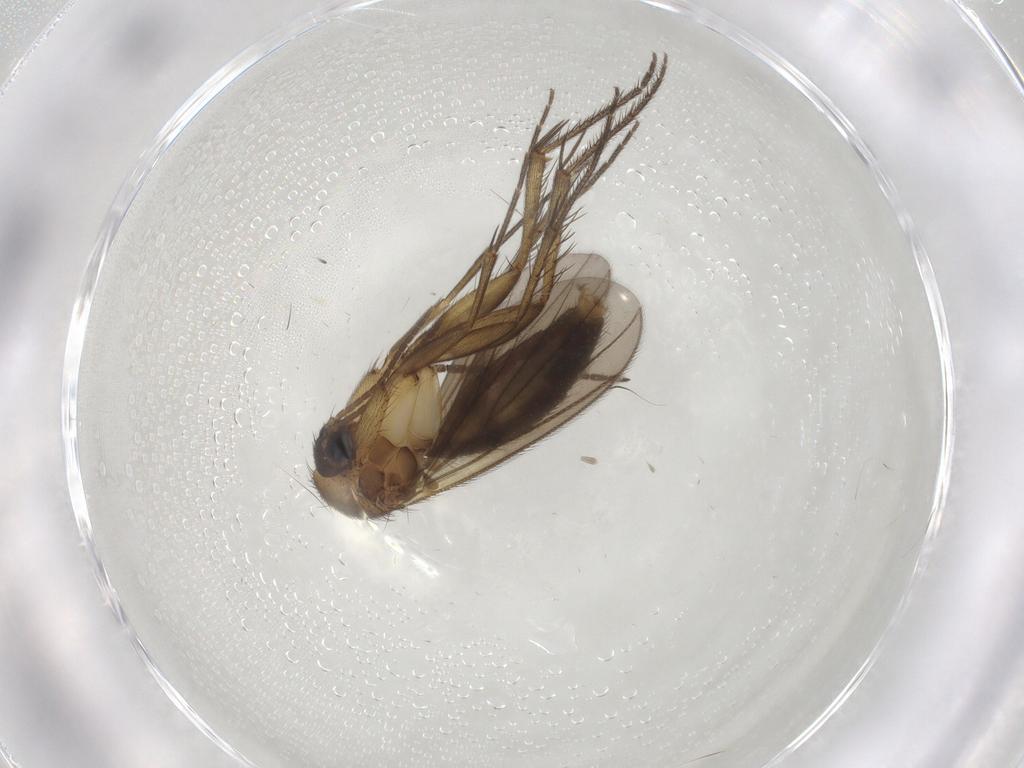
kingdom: Animalia
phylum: Arthropoda
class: Insecta
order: Diptera
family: Mycetophilidae
